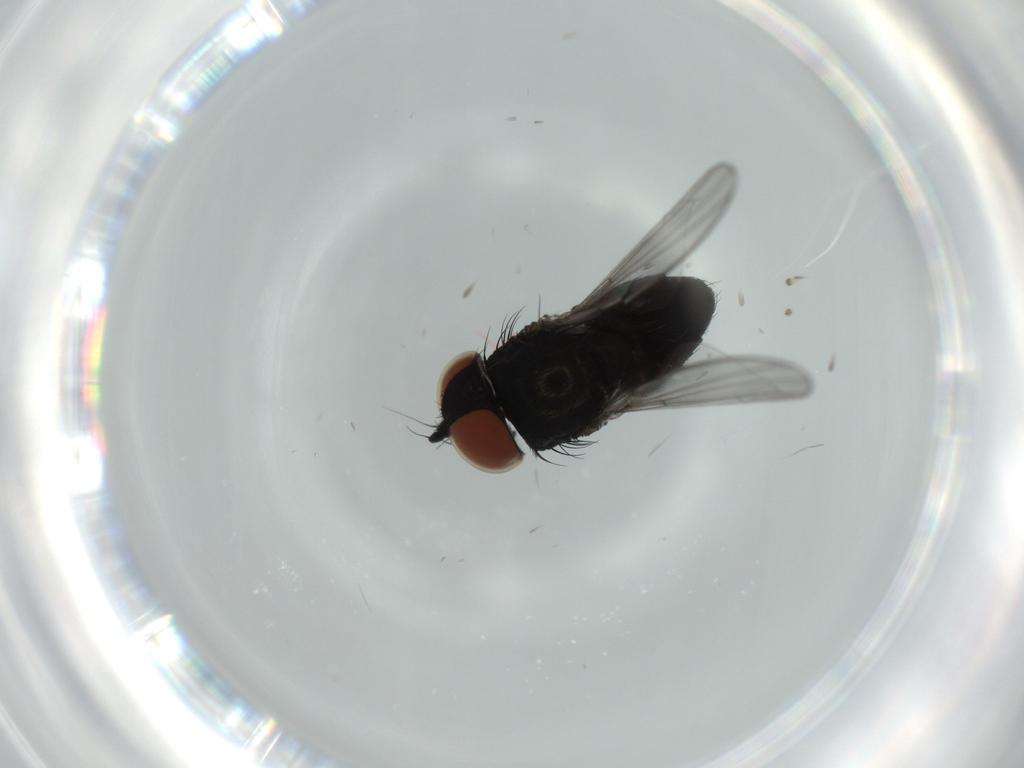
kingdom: Animalia
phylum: Arthropoda
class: Insecta
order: Diptera
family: Milichiidae
